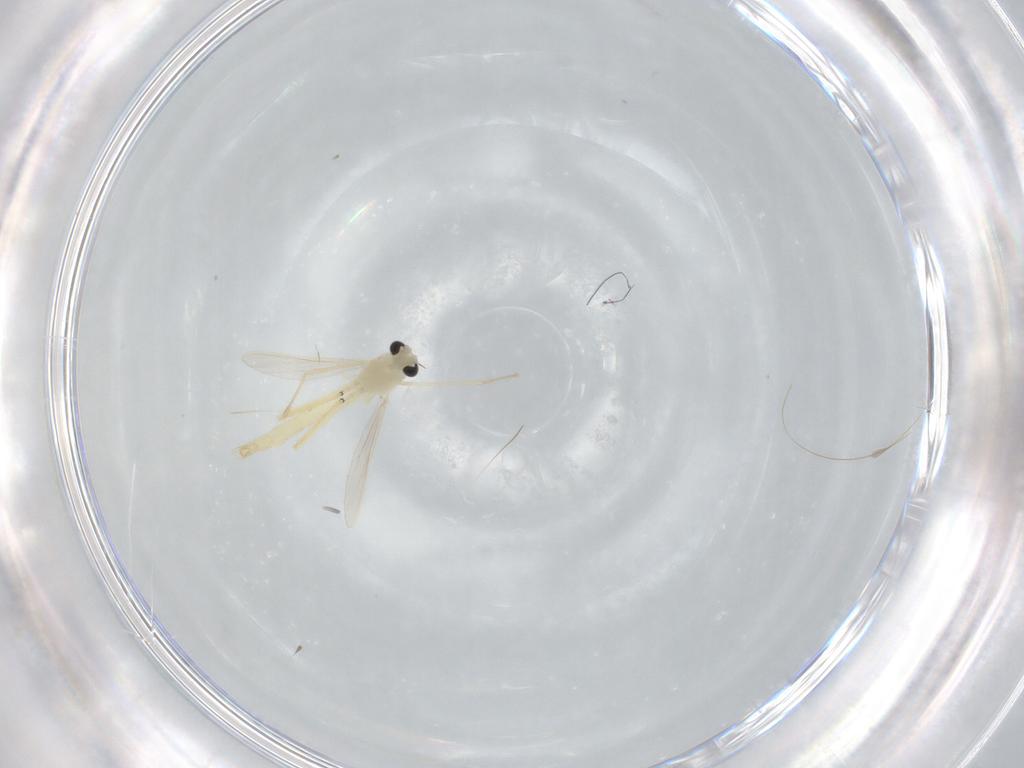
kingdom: Animalia
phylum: Arthropoda
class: Insecta
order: Diptera
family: Chironomidae
